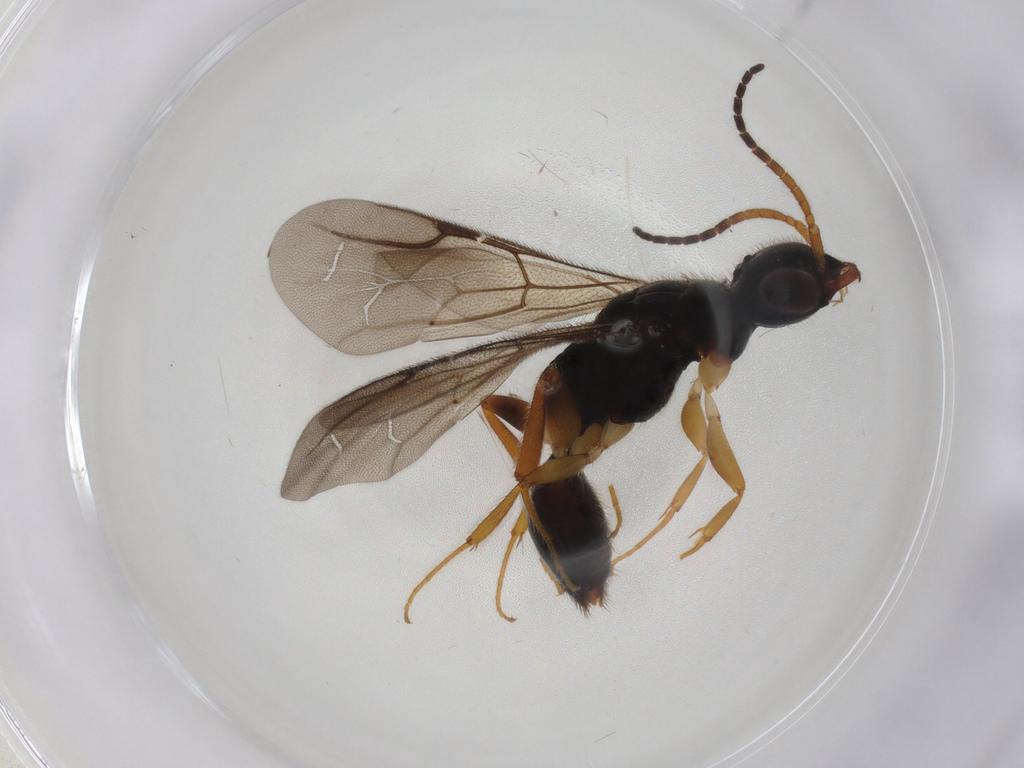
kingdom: Animalia
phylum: Arthropoda
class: Insecta
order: Hymenoptera
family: Bethylidae
